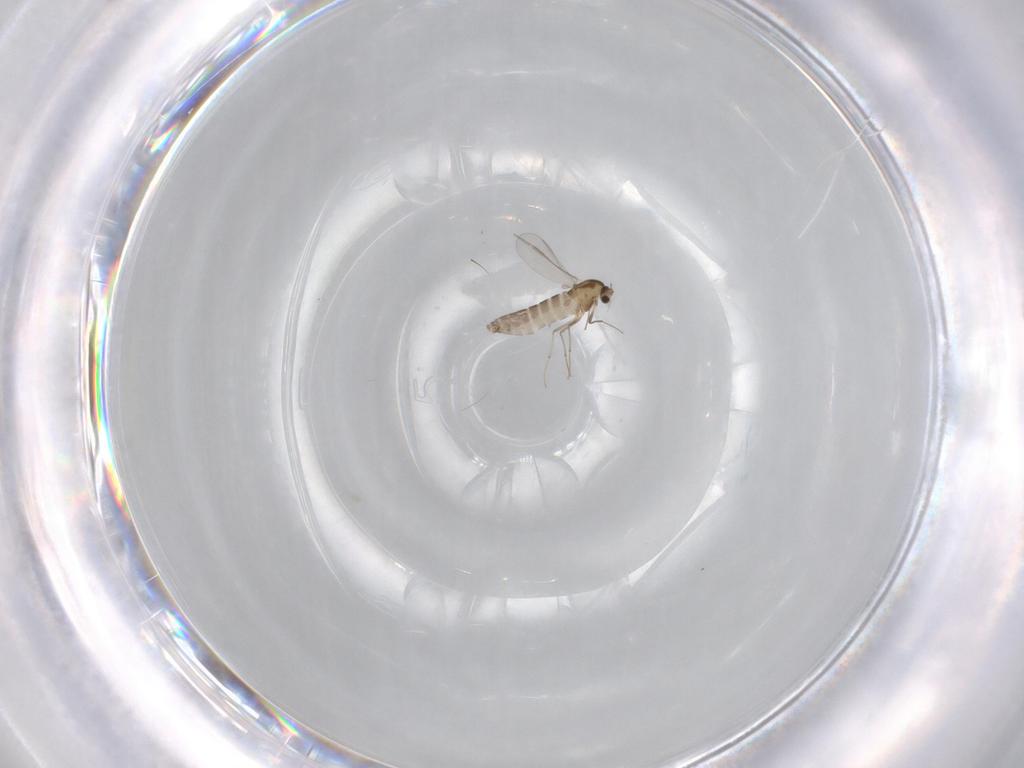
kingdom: Animalia
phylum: Arthropoda
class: Insecta
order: Diptera
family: Chironomidae
